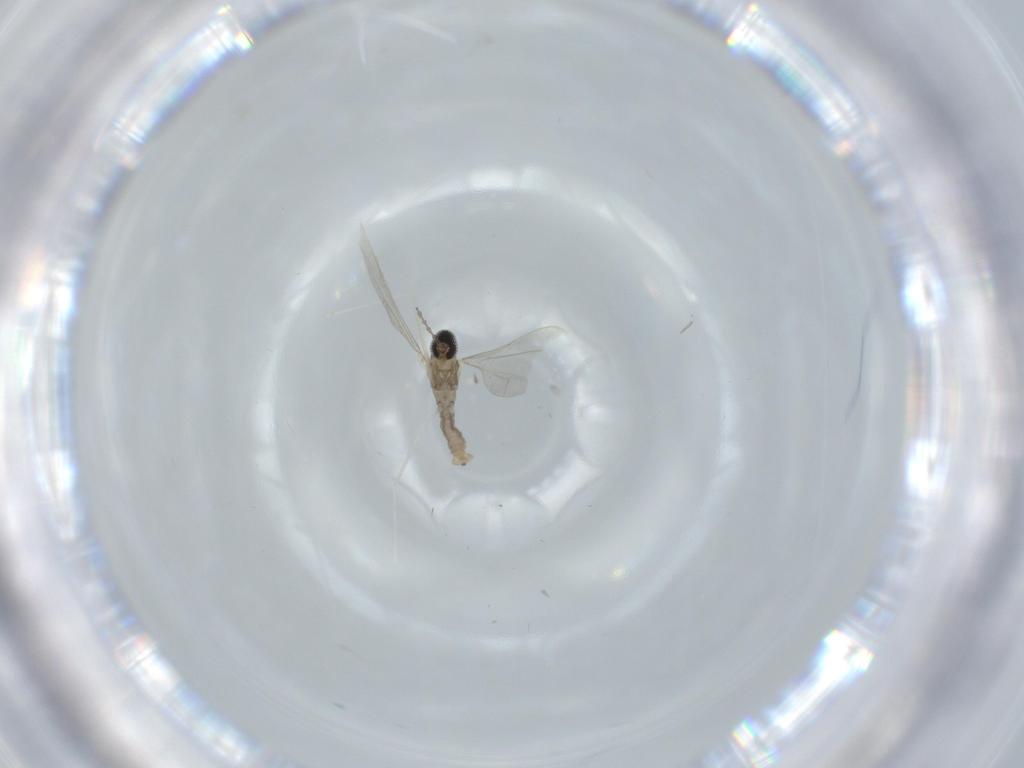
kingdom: Animalia
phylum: Arthropoda
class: Insecta
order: Diptera
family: Cecidomyiidae
